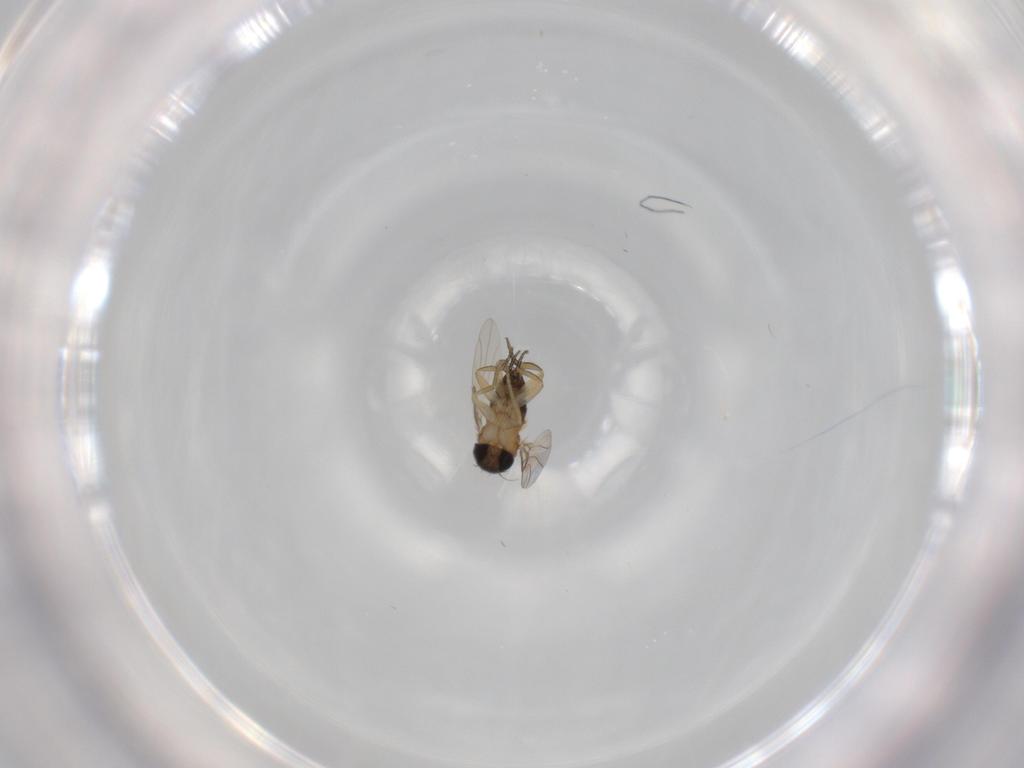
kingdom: Animalia
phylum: Arthropoda
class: Insecta
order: Diptera
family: Phoridae
